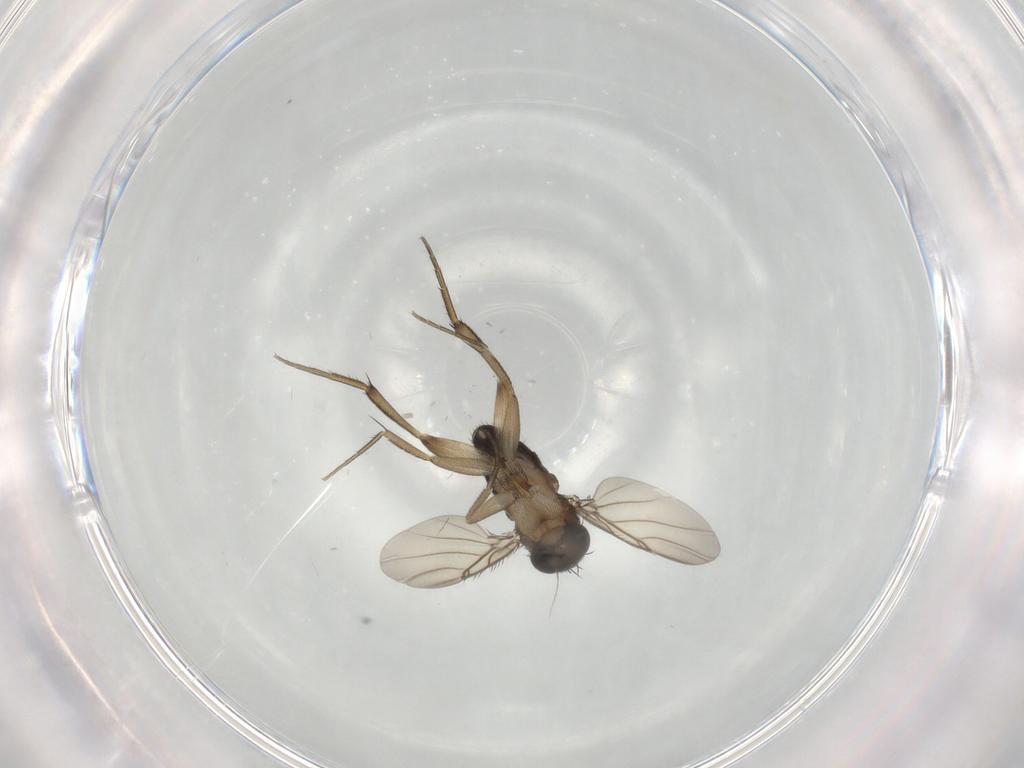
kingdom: Animalia
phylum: Arthropoda
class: Insecta
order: Diptera
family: Phoridae
